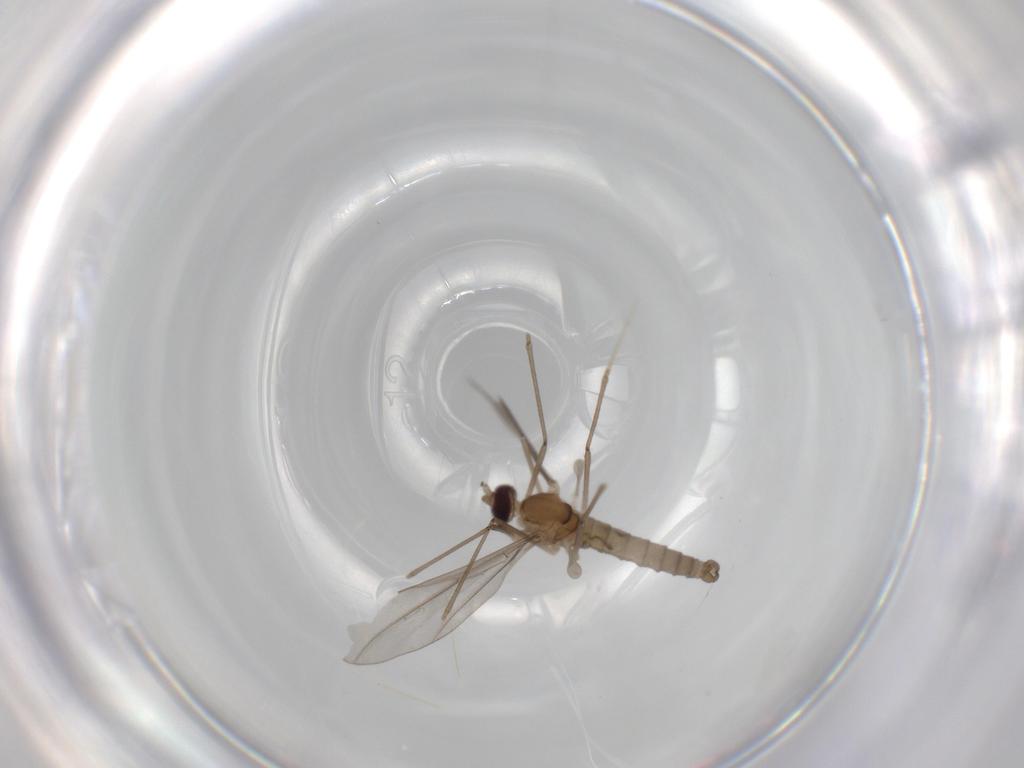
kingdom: Animalia
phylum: Arthropoda
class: Insecta
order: Diptera
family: Cecidomyiidae
